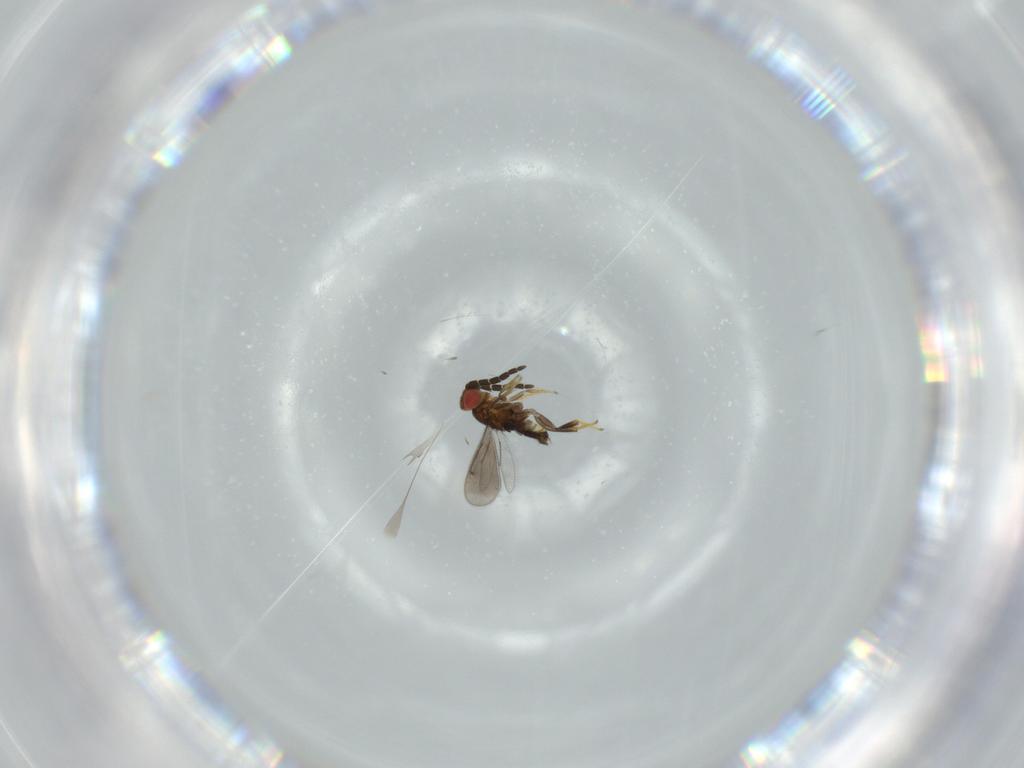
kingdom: Animalia
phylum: Arthropoda
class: Insecta
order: Hymenoptera
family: Aphelinidae
